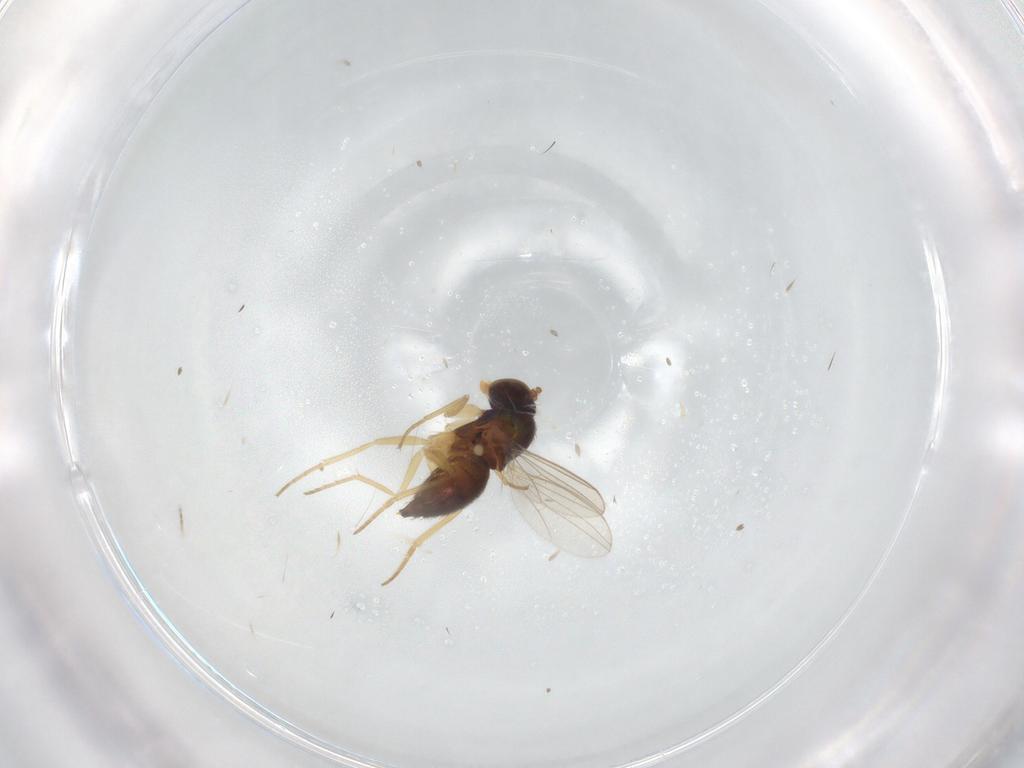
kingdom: Animalia
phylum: Arthropoda
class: Insecta
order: Diptera
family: Dolichopodidae
